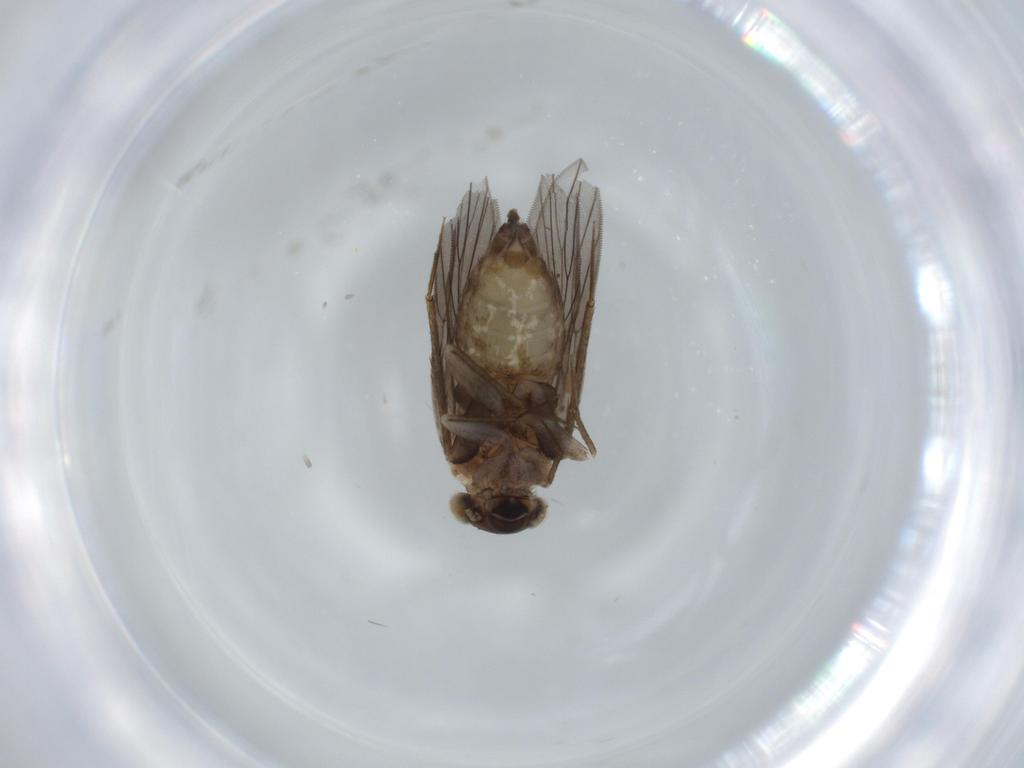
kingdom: Animalia
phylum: Arthropoda
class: Insecta
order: Psocodea
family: Lepidopsocidae
